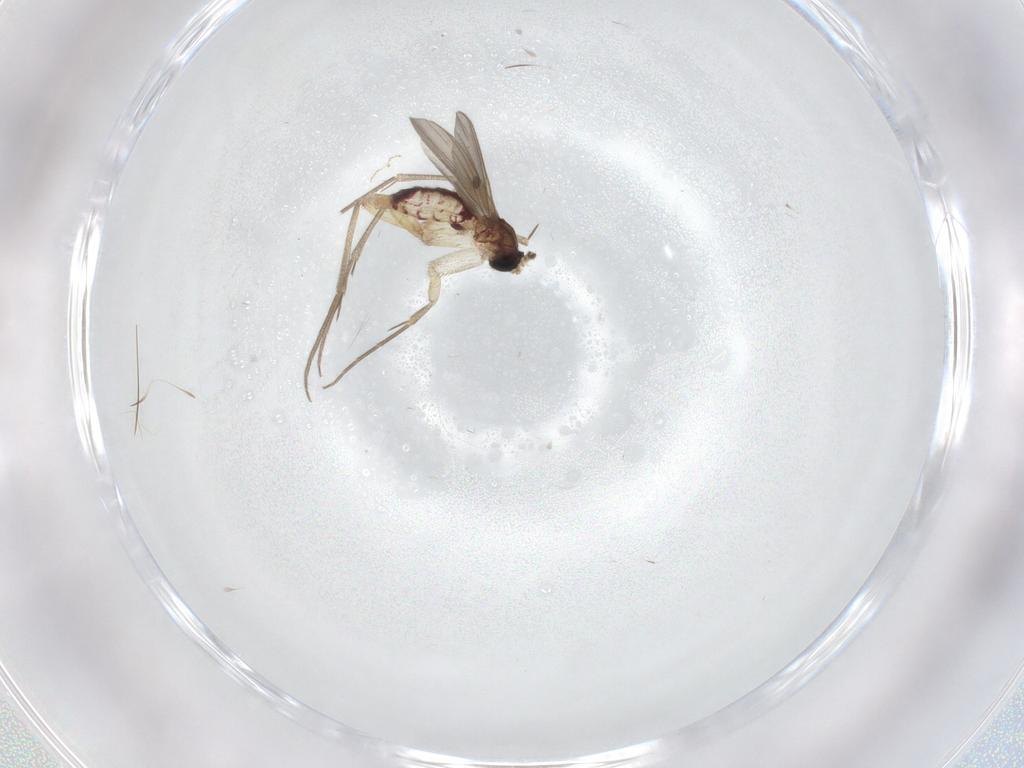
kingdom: Animalia
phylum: Arthropoda
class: Insecta
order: Diptera
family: Mycetophilidae
